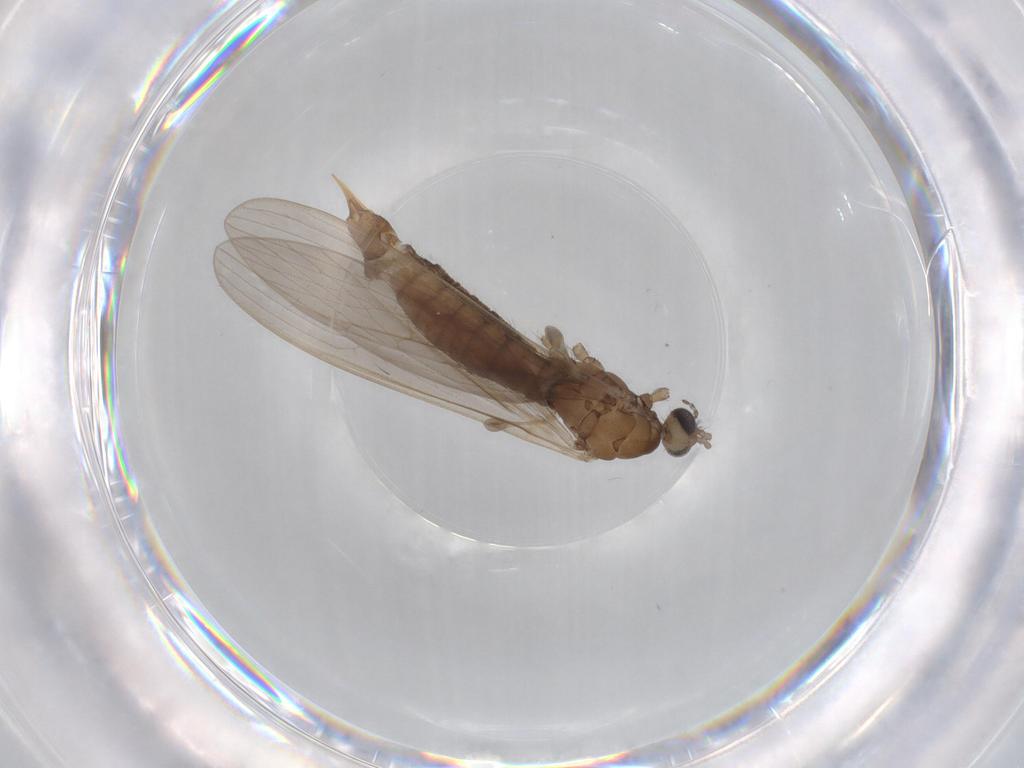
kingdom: Animalia
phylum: Arthropoda
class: Insecta
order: Diptera
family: Limoniidae
